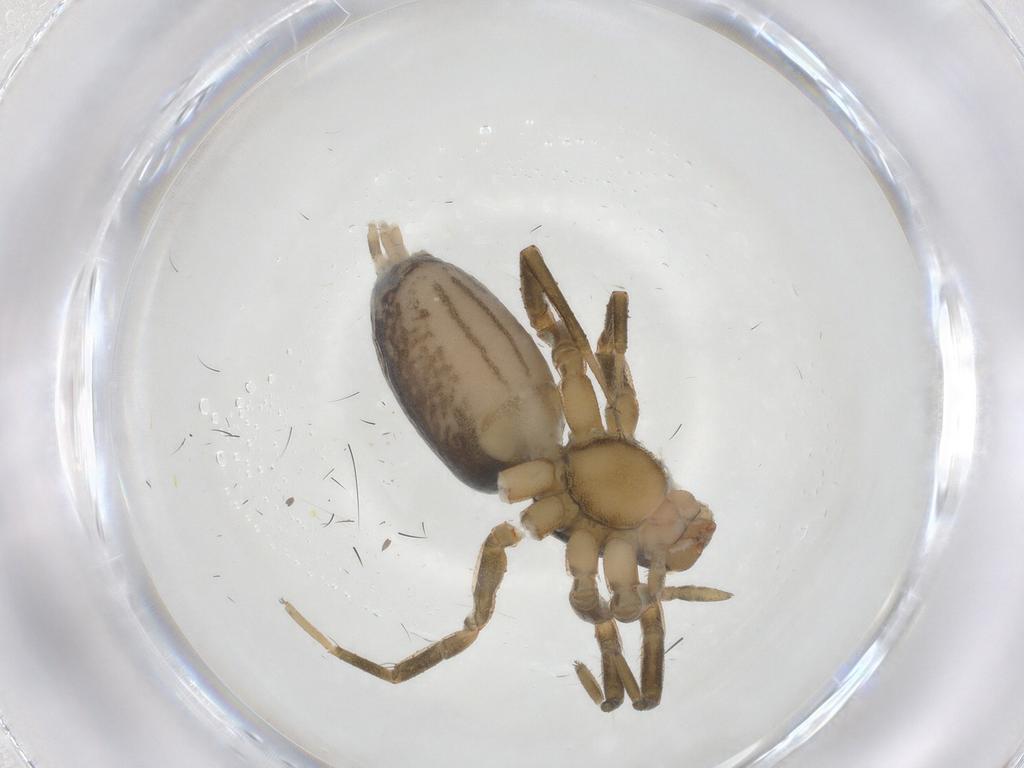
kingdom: Animalia
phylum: Arthropoda
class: Arachnida
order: Araneae
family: Gnaphosidae
